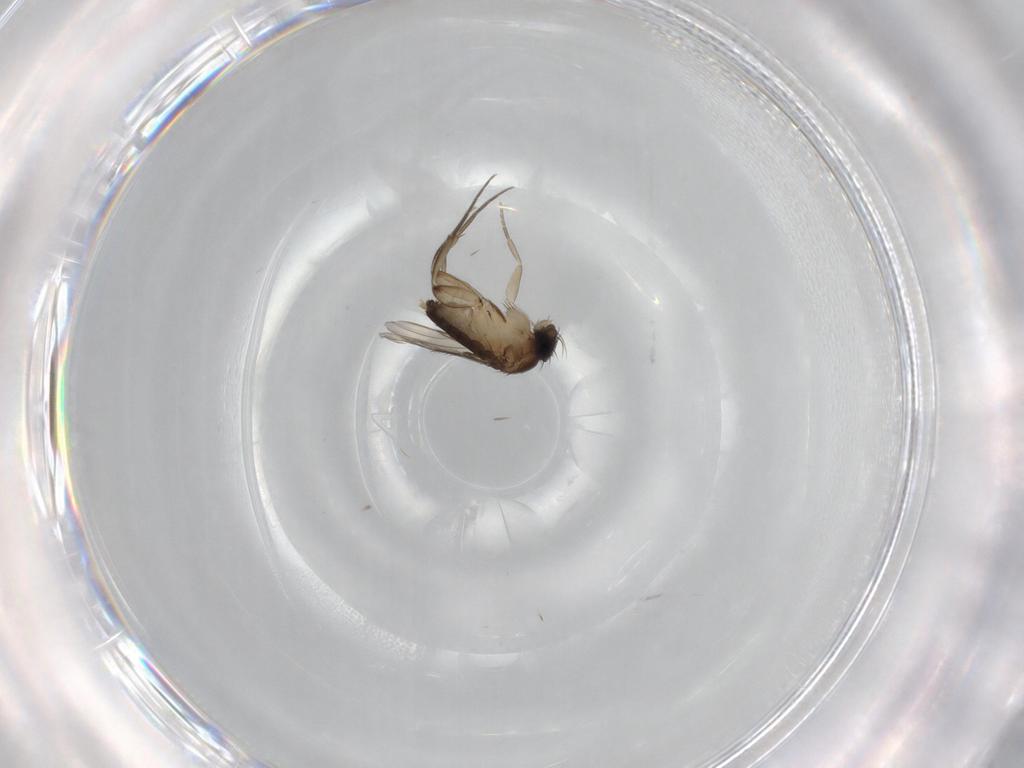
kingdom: Animalia
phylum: Arthropoda
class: Insecta
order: Diptera
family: Phoridae
